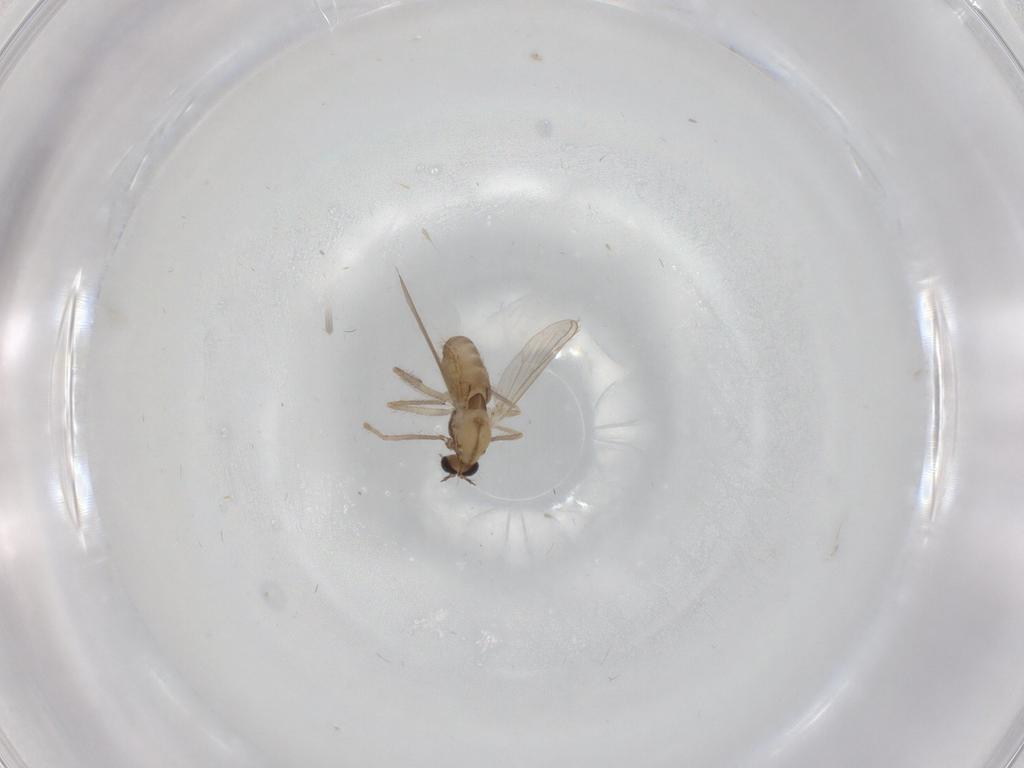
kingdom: Animalia
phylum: Arthropoda
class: Insecta
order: Diptera
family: Chironomidae
